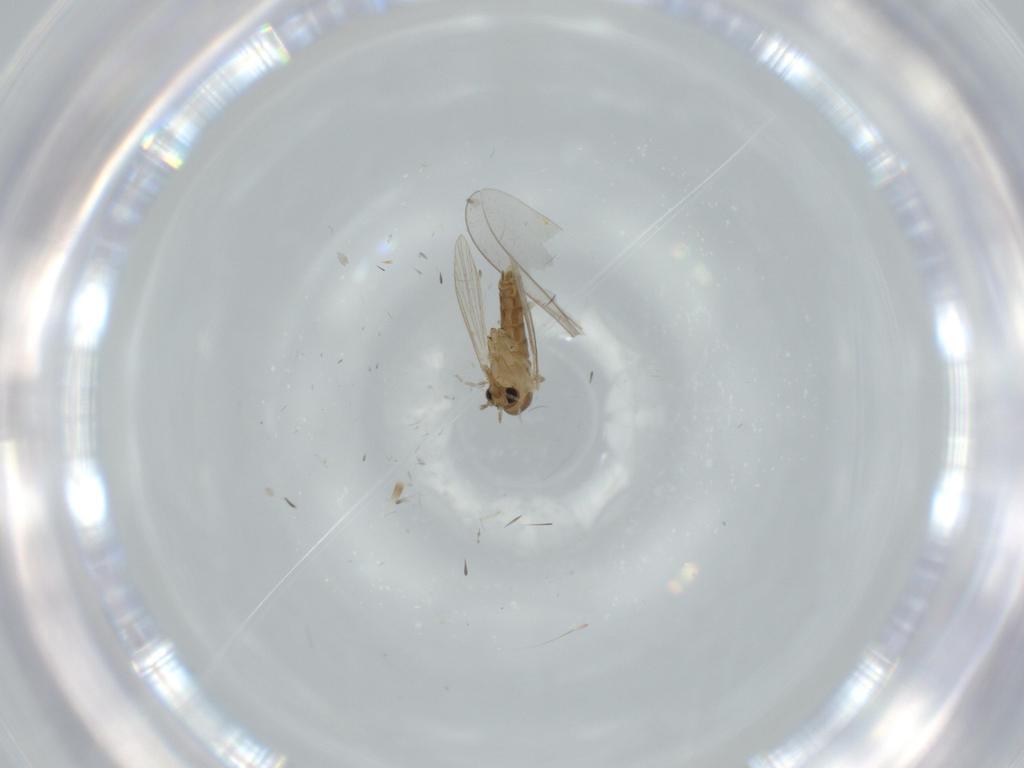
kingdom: Animalia
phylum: Arthropoda
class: Insecta
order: Diptera
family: Psychodidae
